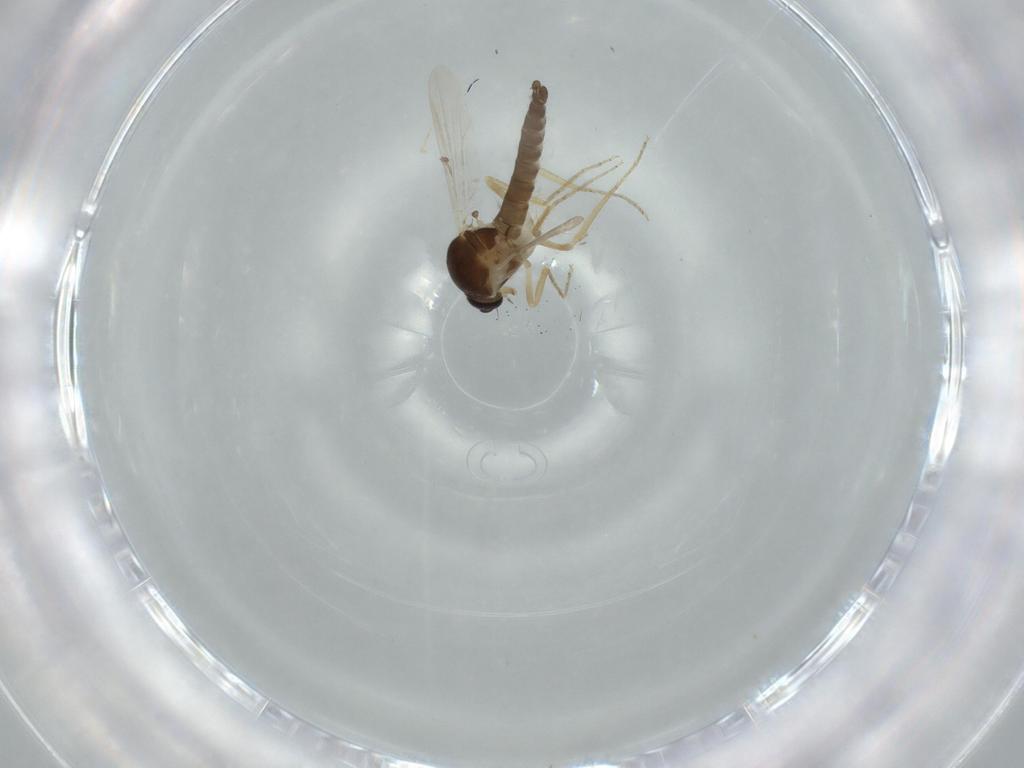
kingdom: Animalia
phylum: Arthropoda
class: Insecta
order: Diptera
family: Ceratopogonidae
